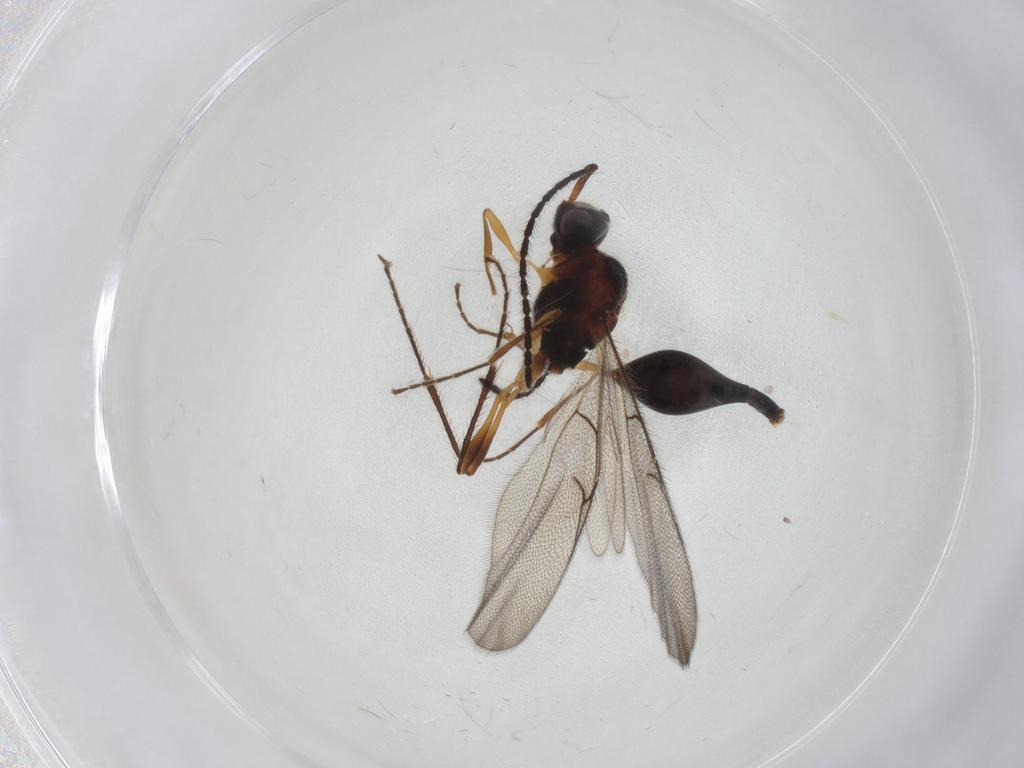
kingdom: Animalia
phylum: Arthropoda
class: Insecta
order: Hymenoptera
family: Diapriidae
